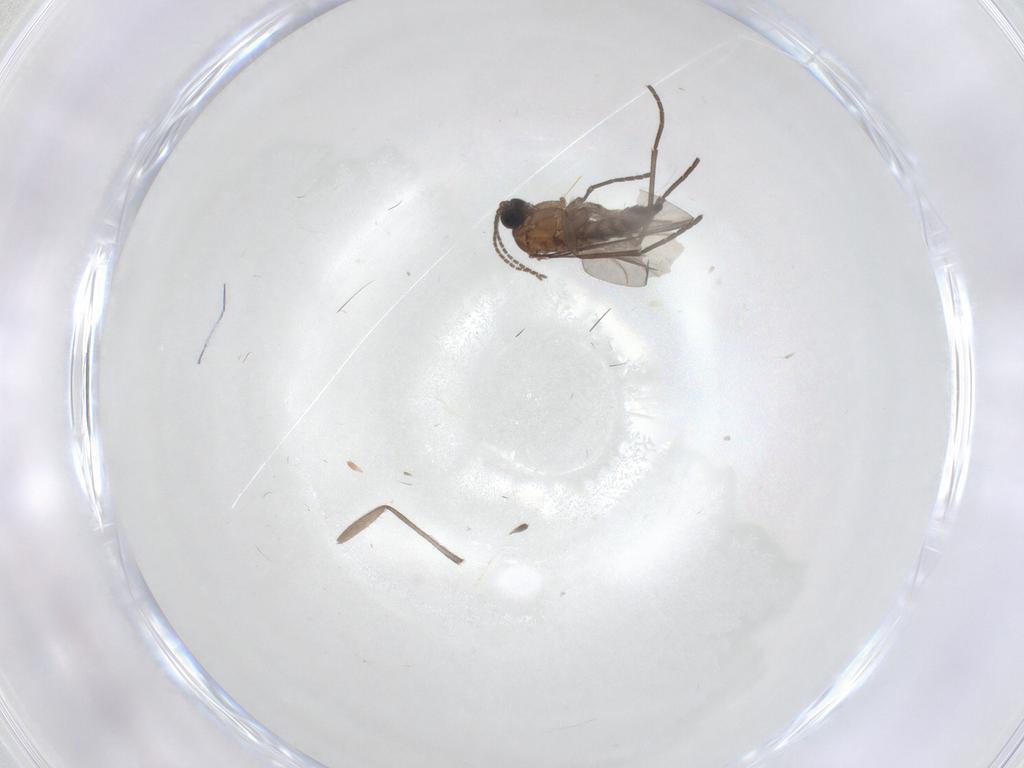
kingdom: Animalia
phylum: Arthropoda
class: Insecta
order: Diptera
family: Sciaridae
